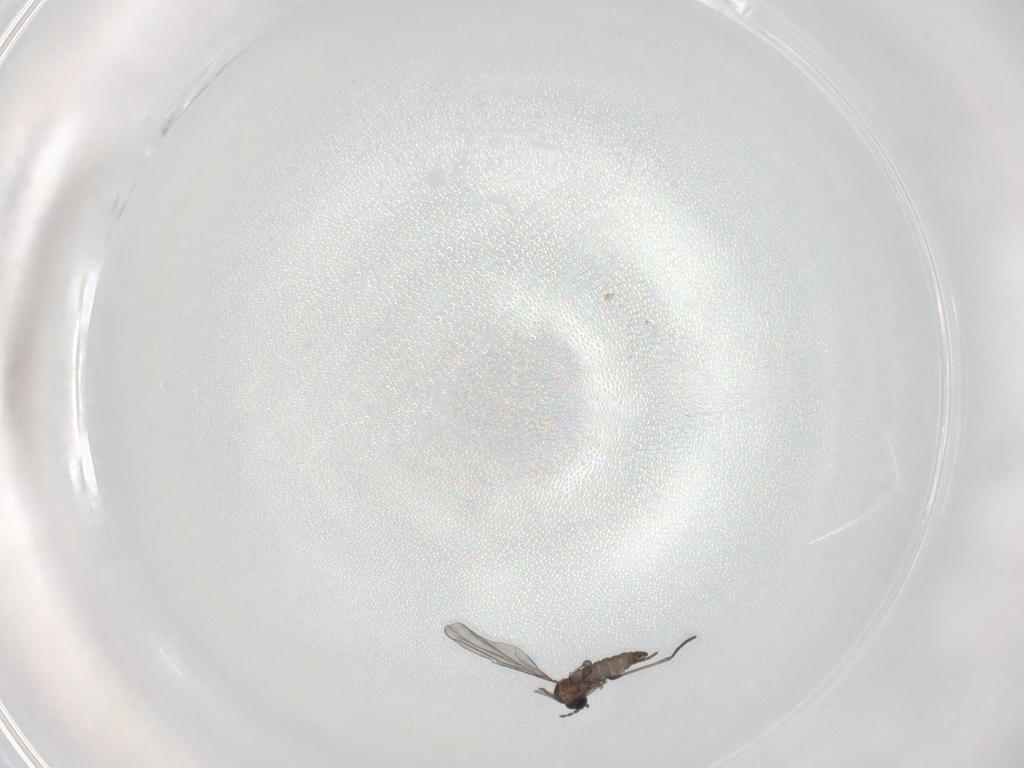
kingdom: Animalia
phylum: Arthropoda
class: Insecta
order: Diptera
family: Sciaridae
